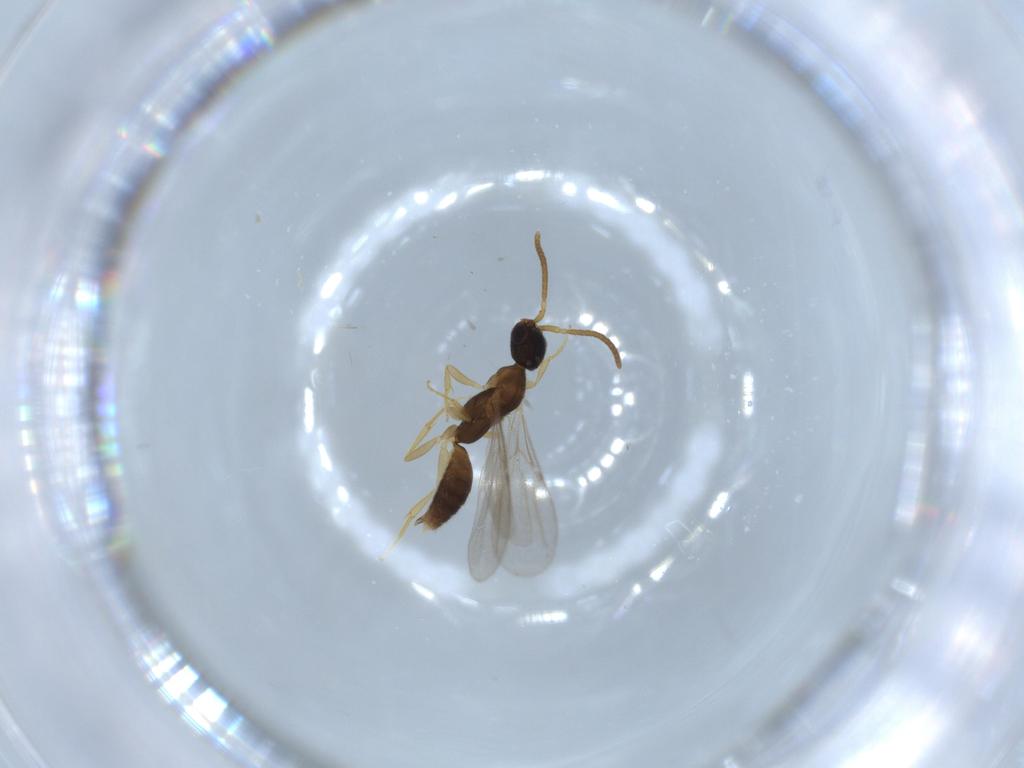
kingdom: Animalia
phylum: Arthropoda
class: Insecta
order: Hymenoptera
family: Bethylidae
